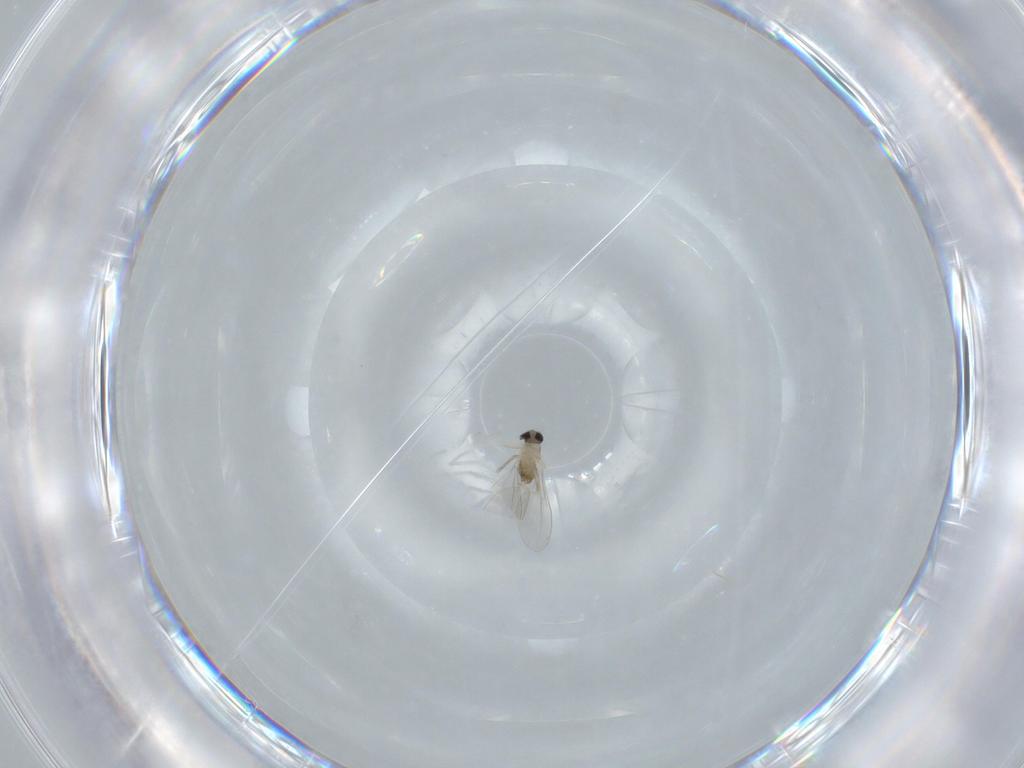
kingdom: Animalia
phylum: Arthropoda
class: Insecta
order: Diptera
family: Cecidomyiidae
